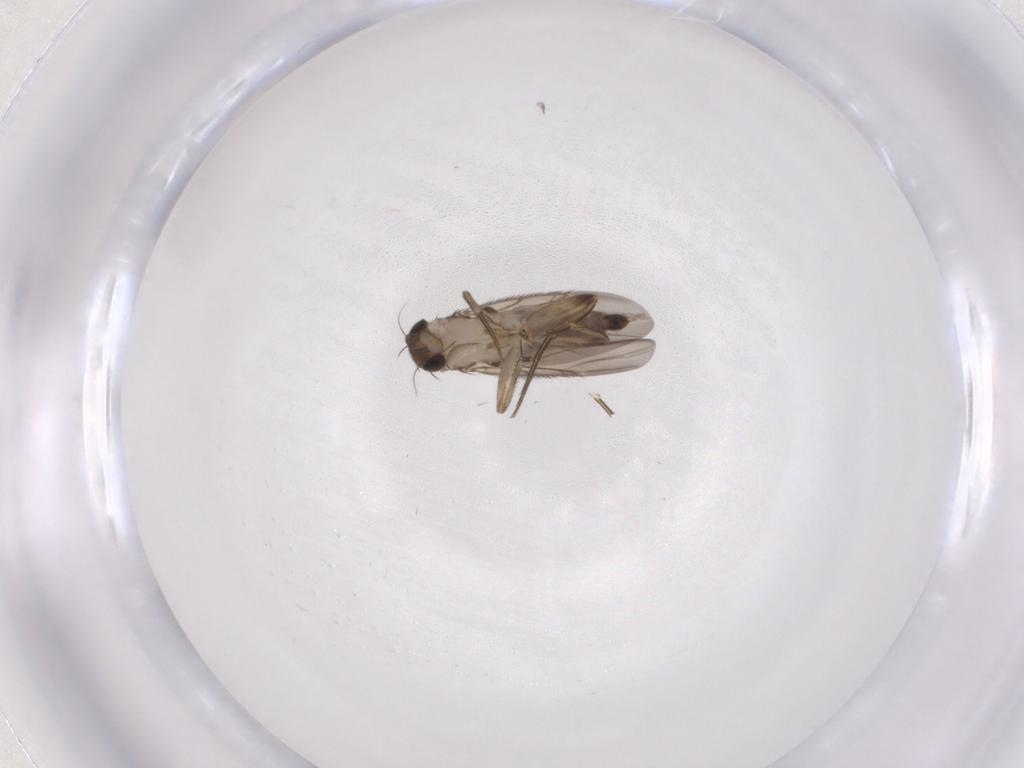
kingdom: Animalia
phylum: Arthropoda
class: Insecta
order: Diptera
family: Phoridae
